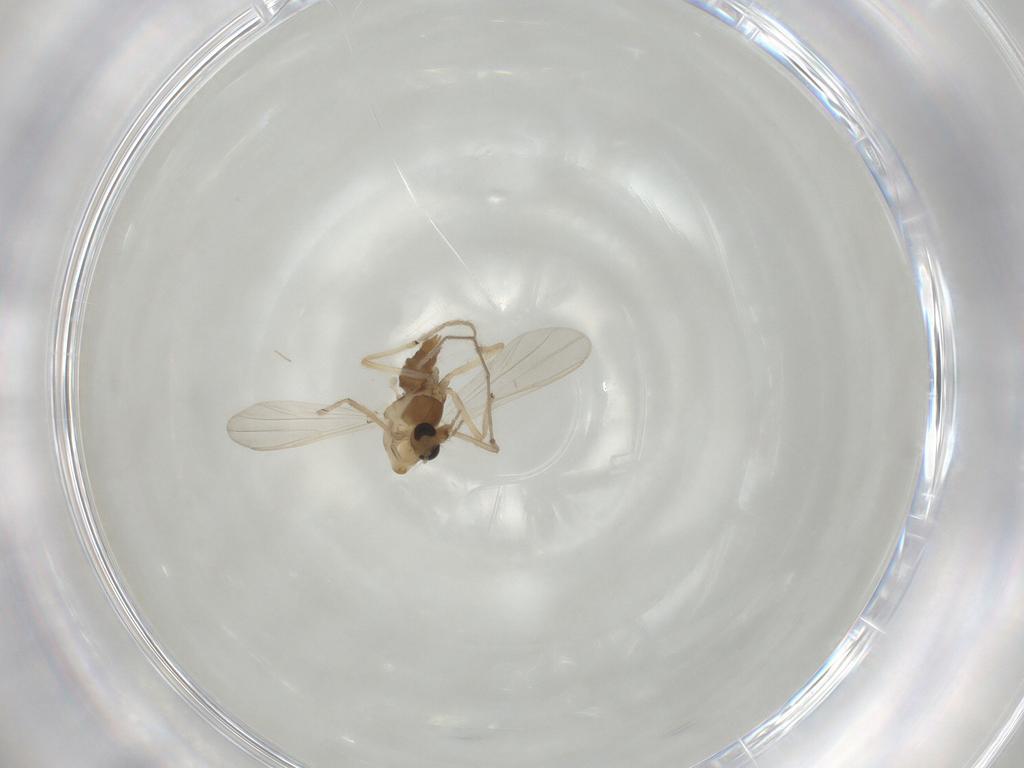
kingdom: Animalia
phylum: Arthropoda
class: Insecta
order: Diptera
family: Chironomidae
